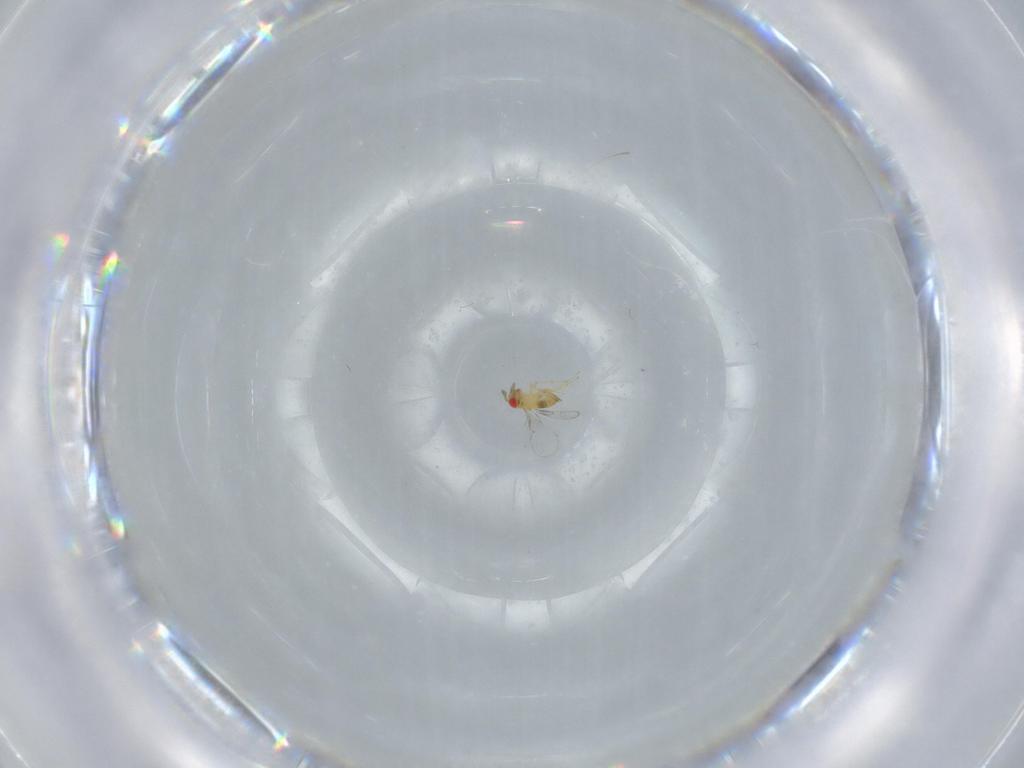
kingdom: Animalia
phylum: Arthropoda
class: Insecta
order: Hymenoptera
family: Trichogrammatidae
